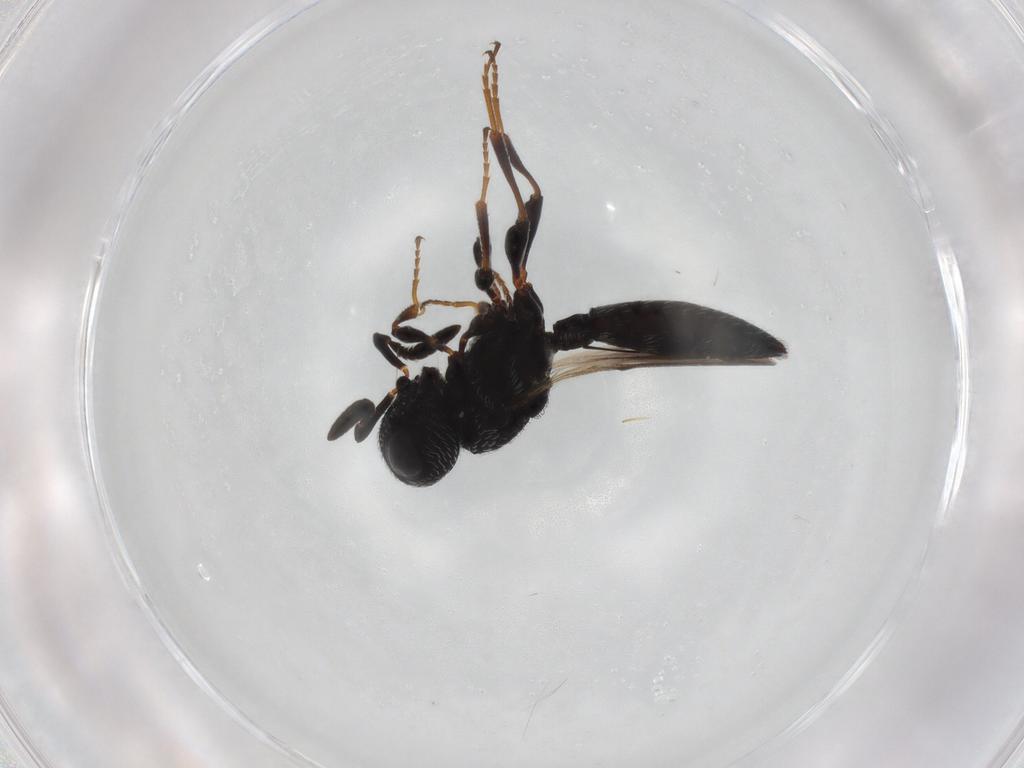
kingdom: Animalia
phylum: Arthropoda
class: Insecta
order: Hymenoptera
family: Scelionidae
